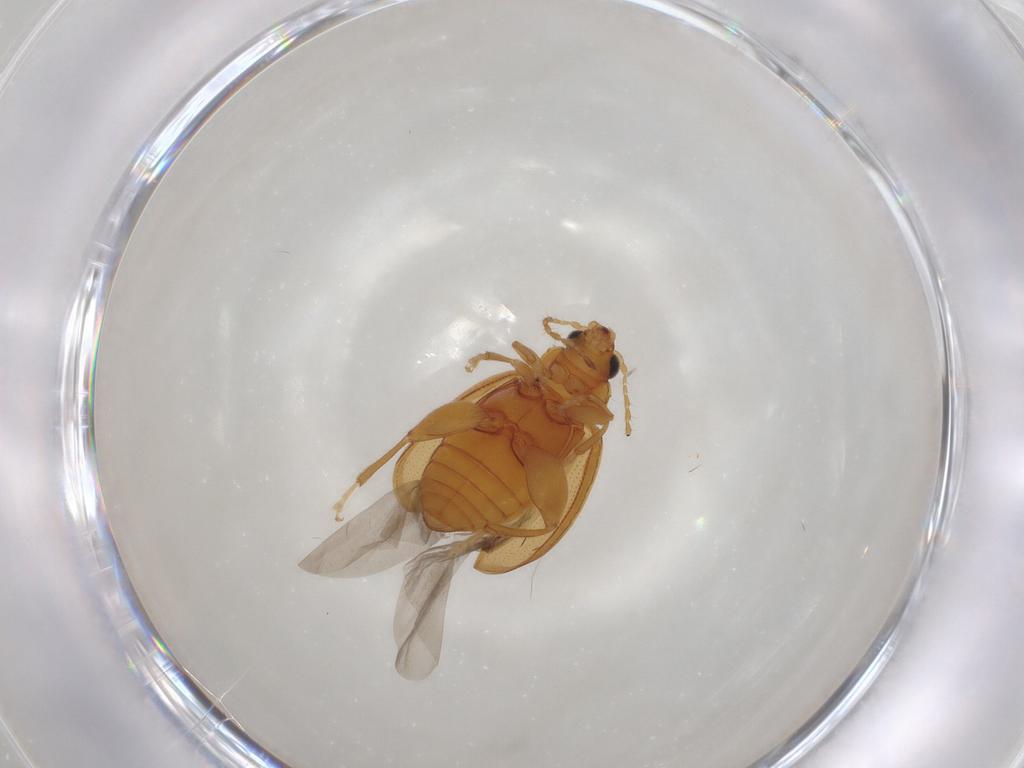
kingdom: Animalia
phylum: Arthropoda
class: Insecta
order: Coleoptera
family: Chrysomelidae
